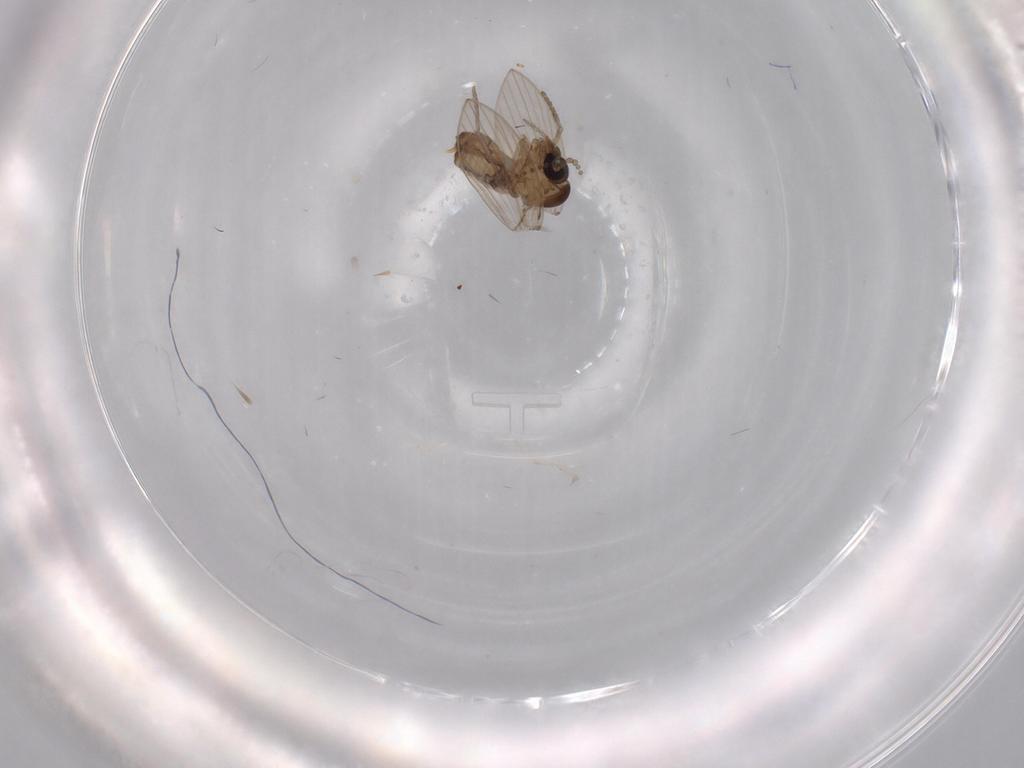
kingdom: Animalia
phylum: Arthropoda
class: Insecta
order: Diptera
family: Psychodidae
